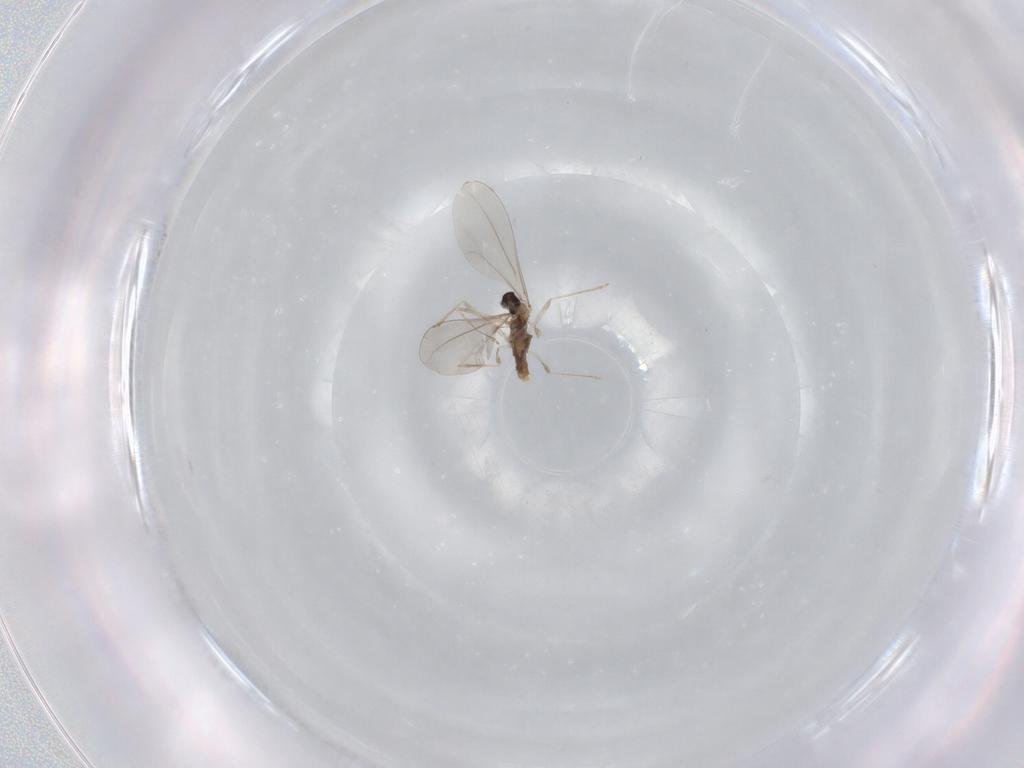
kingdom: Animalia
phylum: Arthropoda
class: Insecta
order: Diptera
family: Cecidomyiidae
